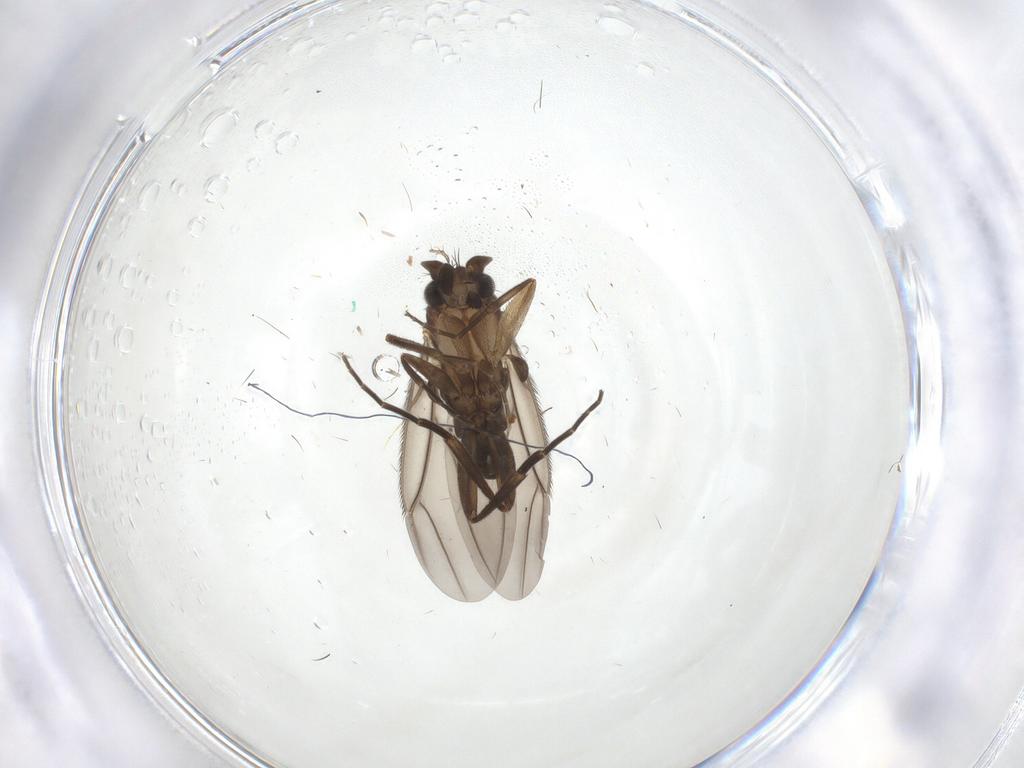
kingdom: Animalia
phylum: Arthropoda
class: Insecta
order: Diptera
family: Phoridae
